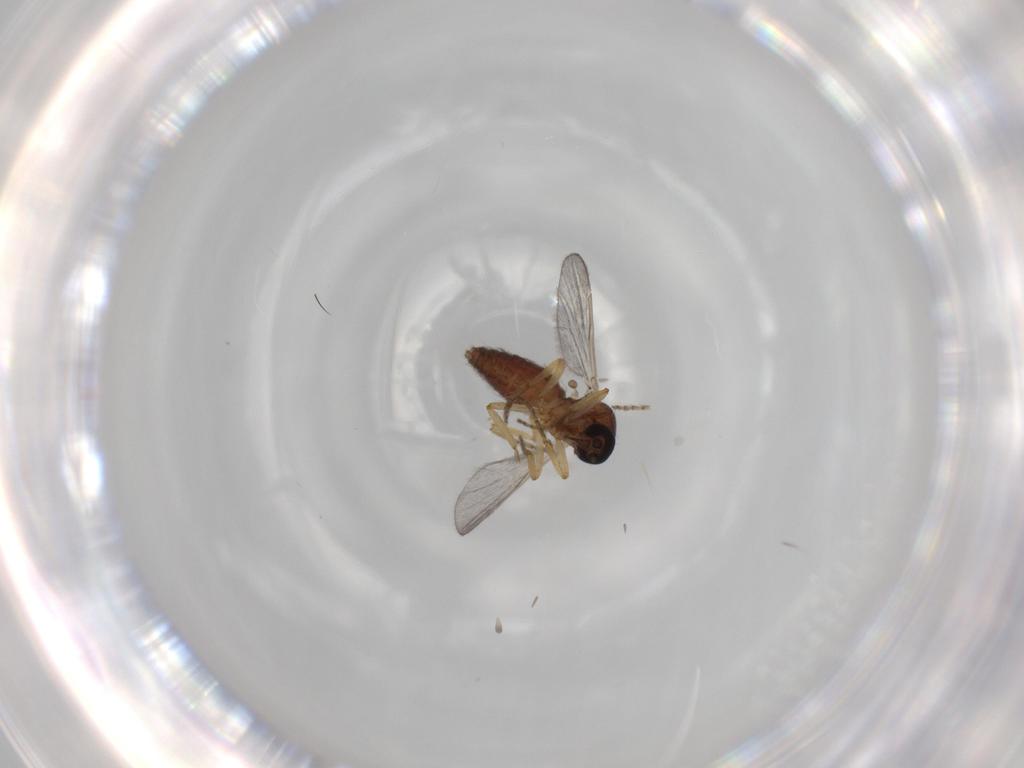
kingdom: Animalia
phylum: Arthropoda
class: Insecta
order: Diptera
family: Ceratopogonidae
